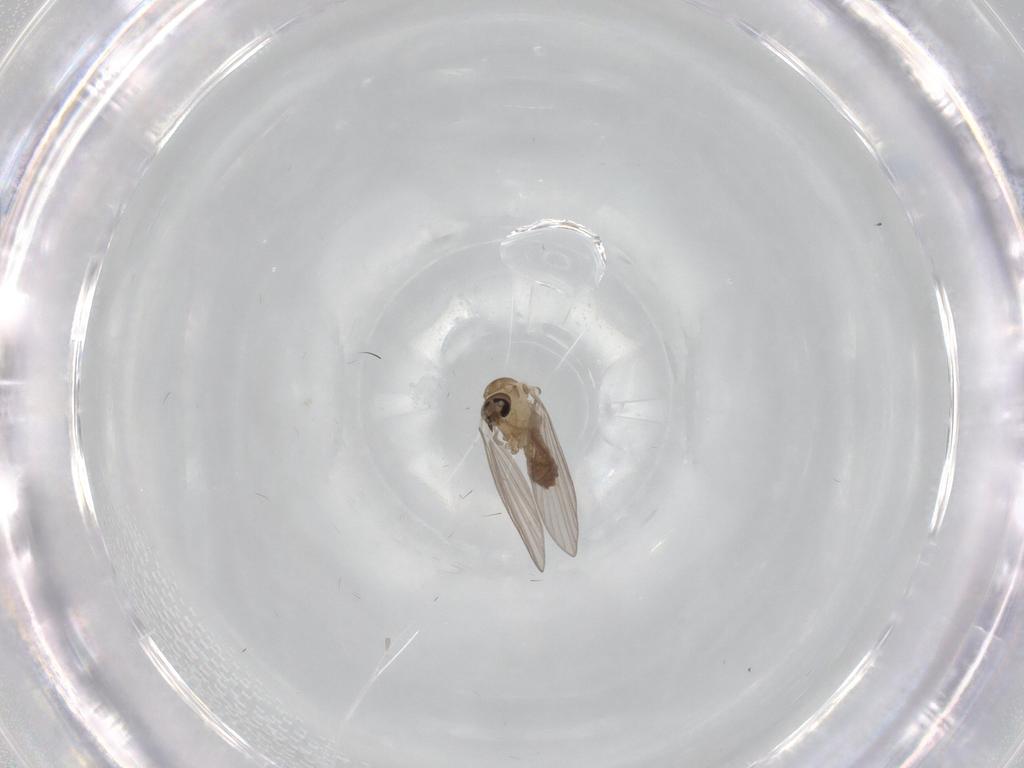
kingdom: Animalia
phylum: Arthropoda
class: Insecta
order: Diptera
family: Psychodidae
